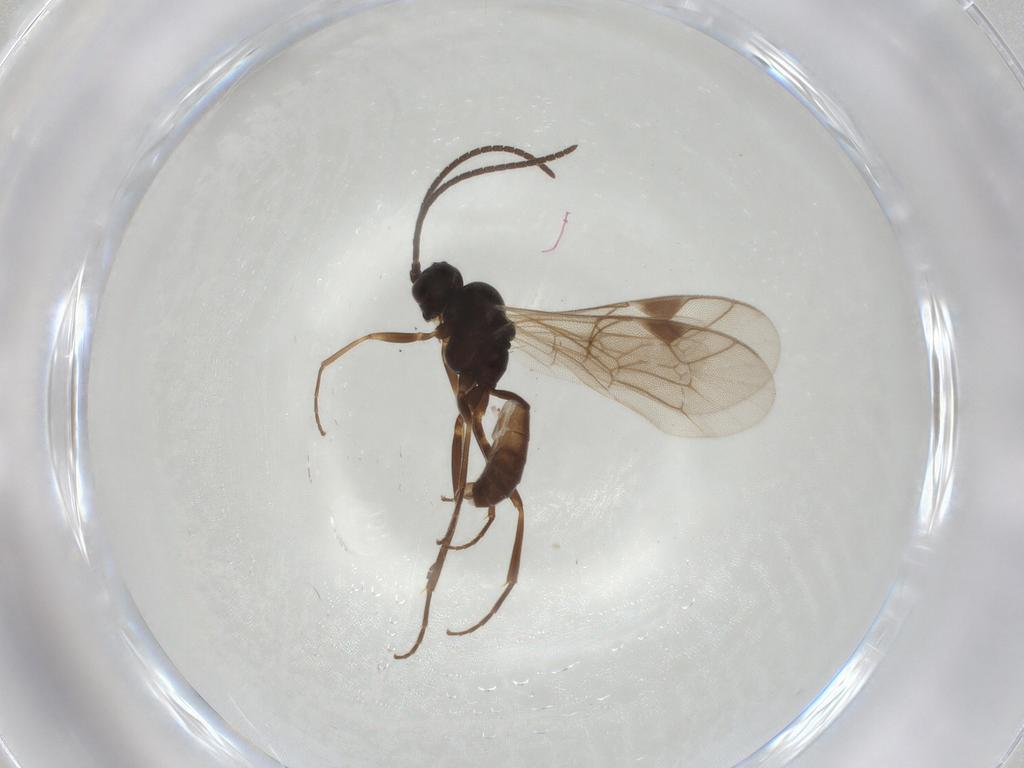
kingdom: Animalia
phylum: Arthropoda
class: Insecta
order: Hymenoptera
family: Ichneumonidae
